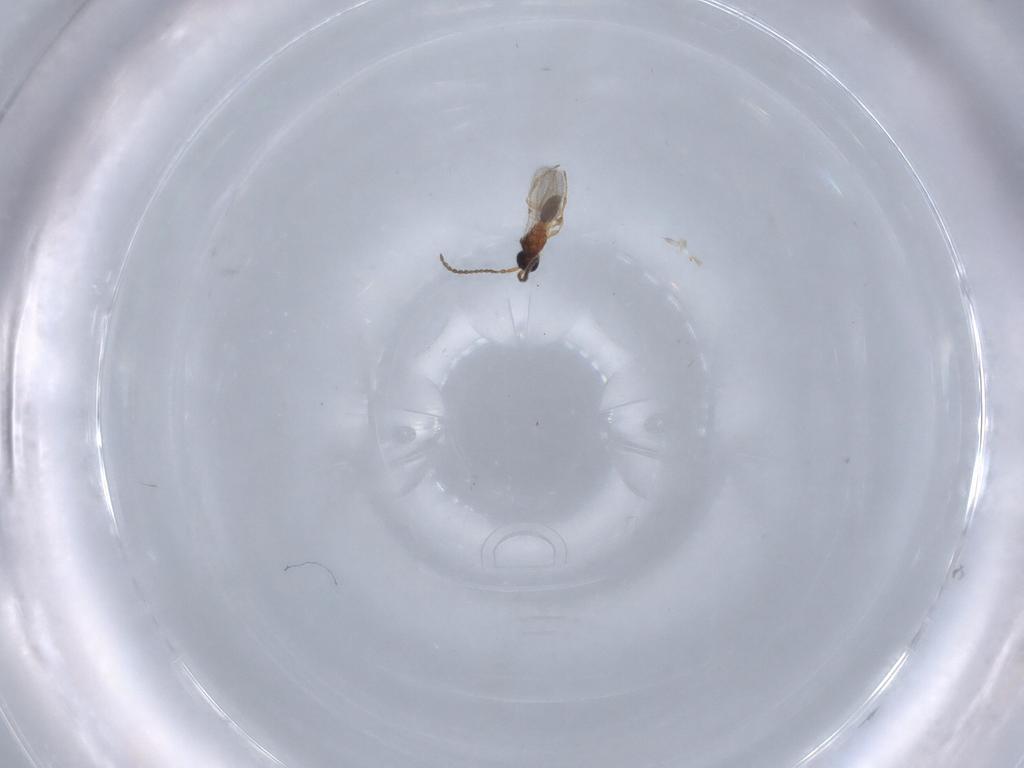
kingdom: Animalia
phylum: Arthropoda
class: Insecta
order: Hymenoptera
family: Diapriidae
